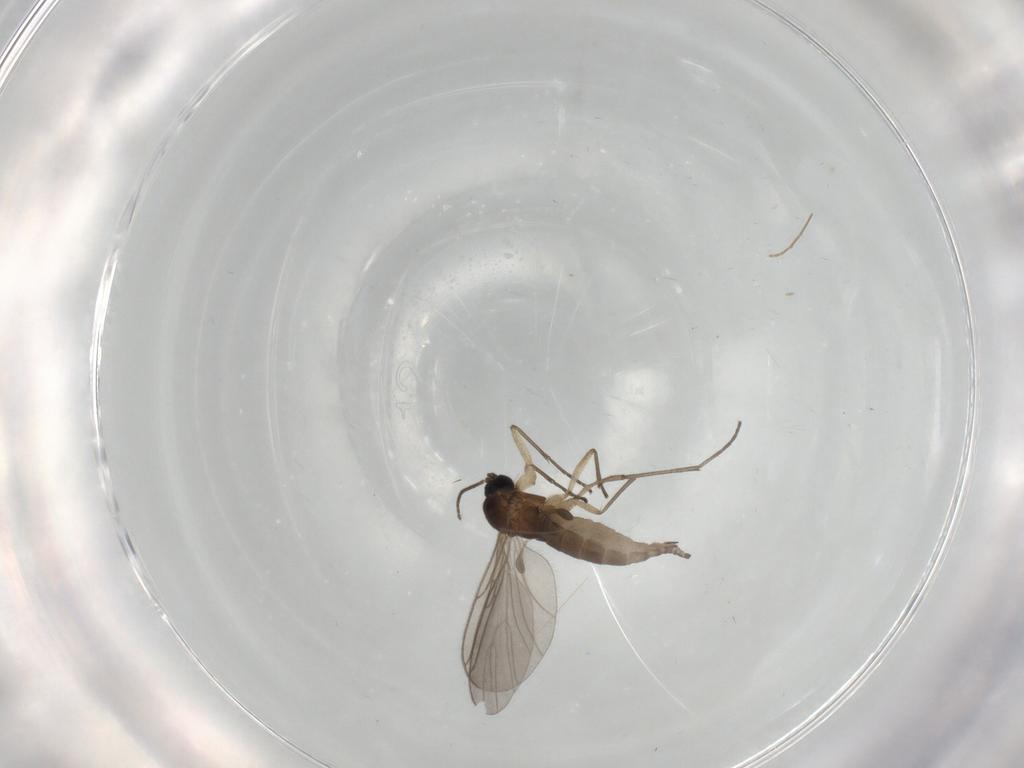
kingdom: Animalia
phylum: Arthropoda
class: Insecta
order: Diptera
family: Sciaridae
